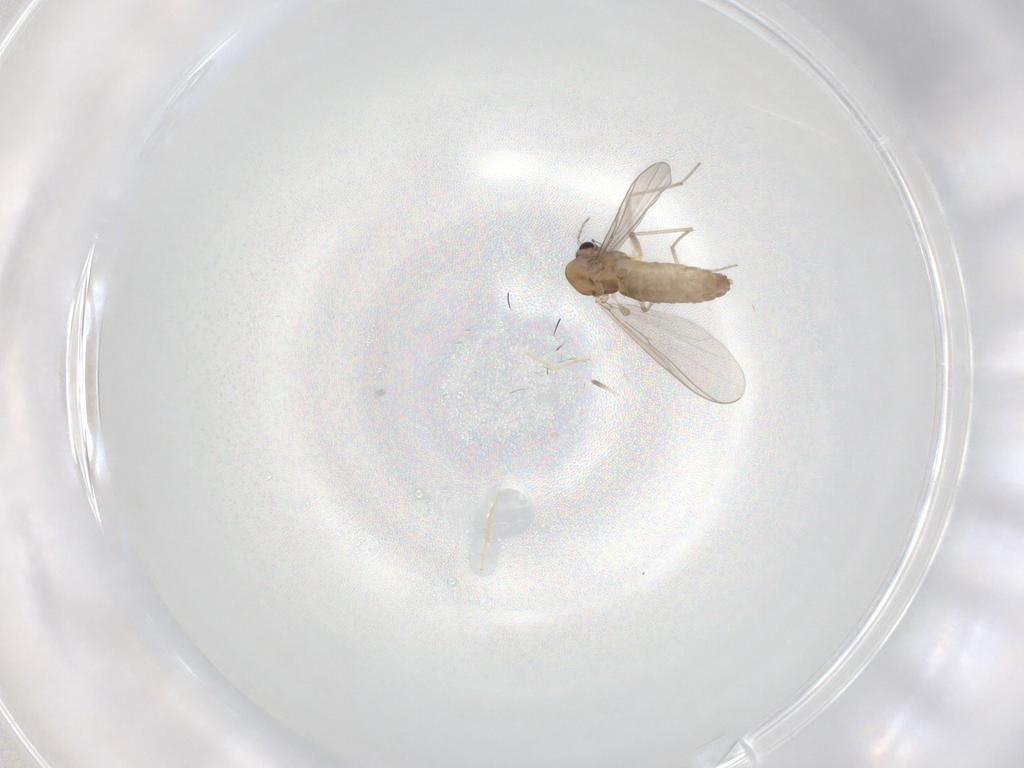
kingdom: Animalia
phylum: Arthropoda
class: Insecta
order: Diptera
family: Chironomidae
